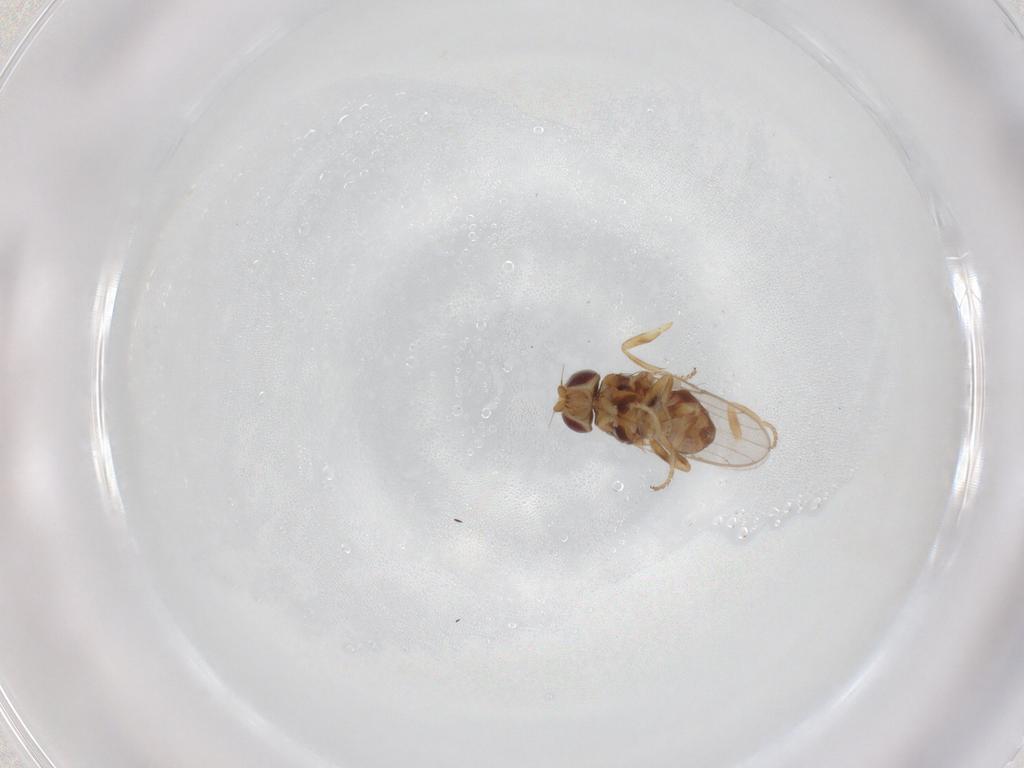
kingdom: Animalia
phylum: Arthropoda
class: Insecta
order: Diptera
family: Chloropidae
